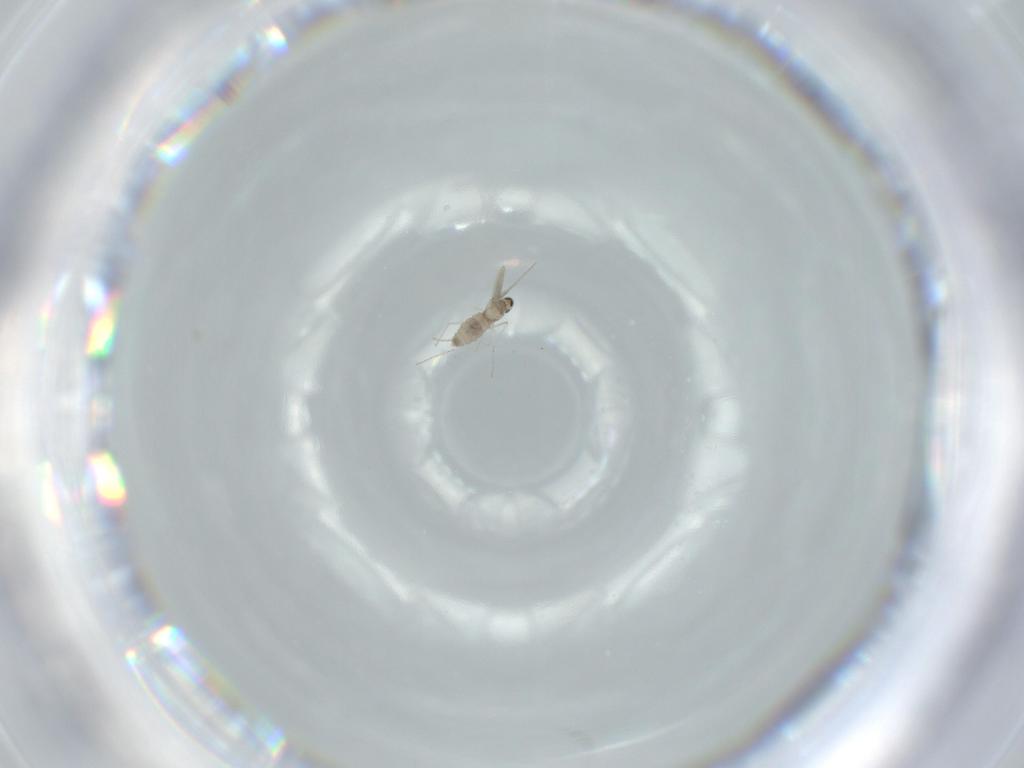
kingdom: Animalia
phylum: Arthropoda
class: Insecta
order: Diptera
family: Cecidomyiidae
